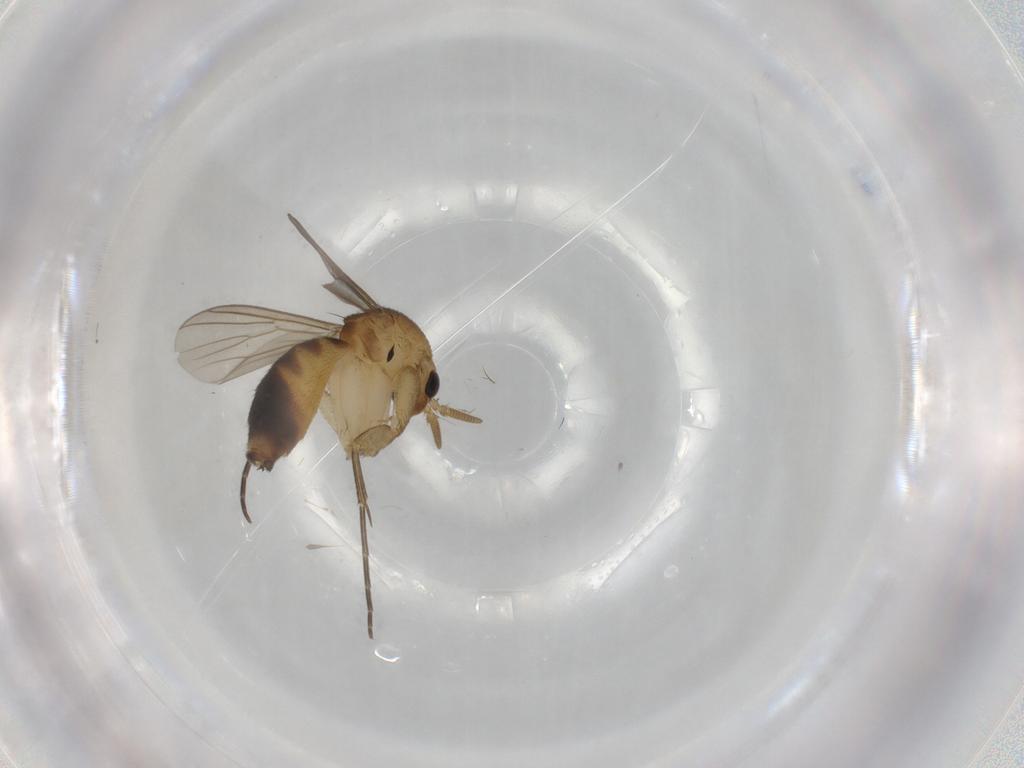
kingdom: Animalia
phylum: Arthropoda
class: Insecta
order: Diptera
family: Mycetophilidae
